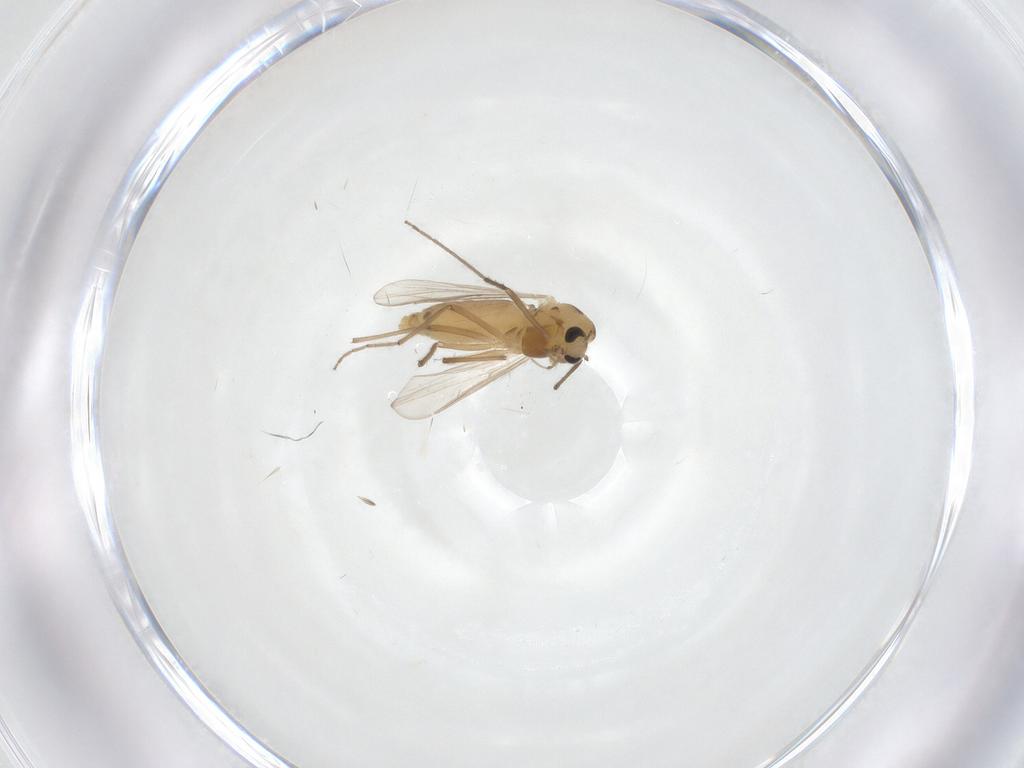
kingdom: Animalia
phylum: Arthropoda
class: Insecta
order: Diptera
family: Chironomidae
